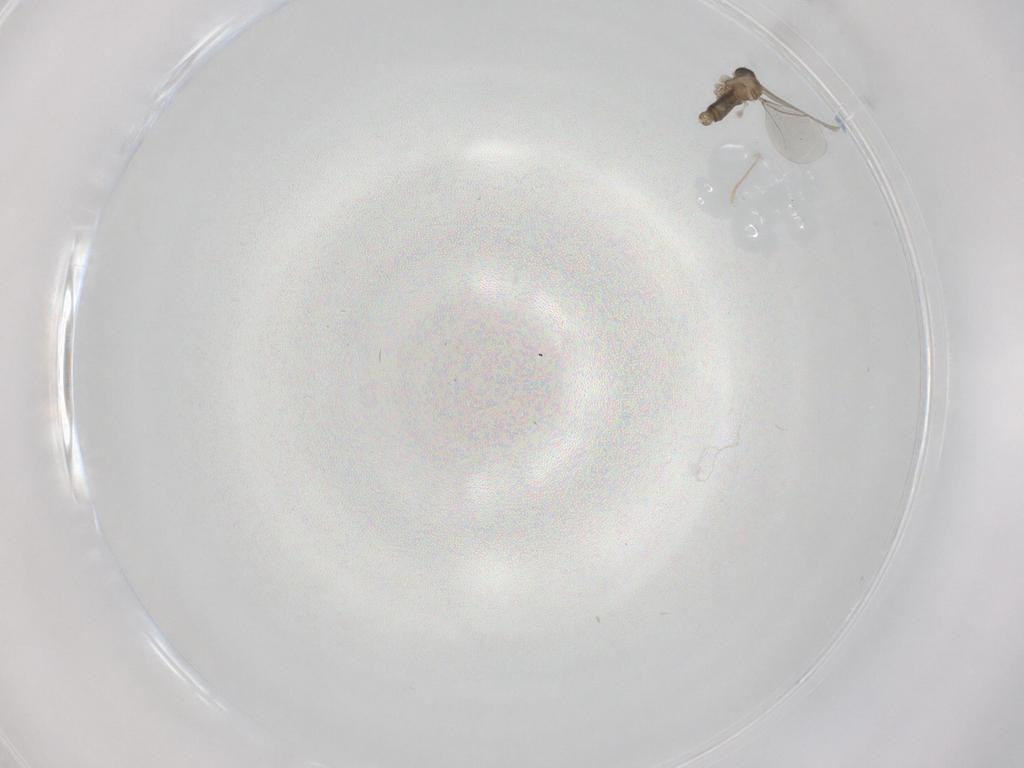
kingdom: Animalia
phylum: Arthropoda
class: Insecta
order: Diptera
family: Cecidomyiidae
